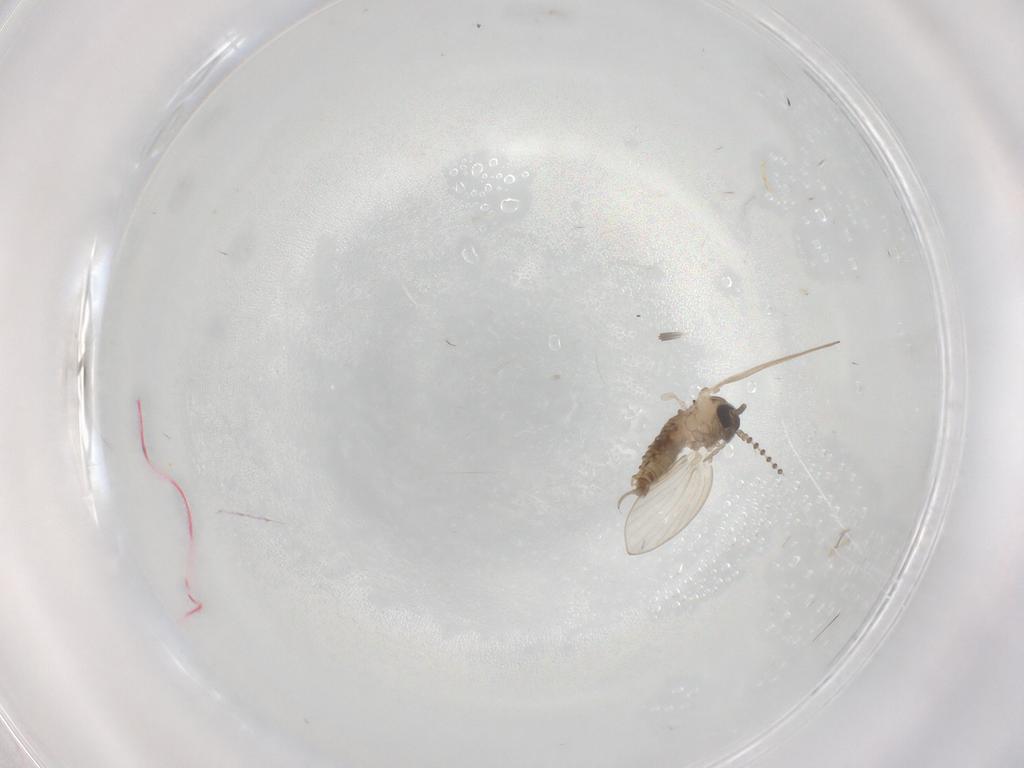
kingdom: Animalia
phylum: Arthropoda
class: Insecta
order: Diptera
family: Psychodidae
